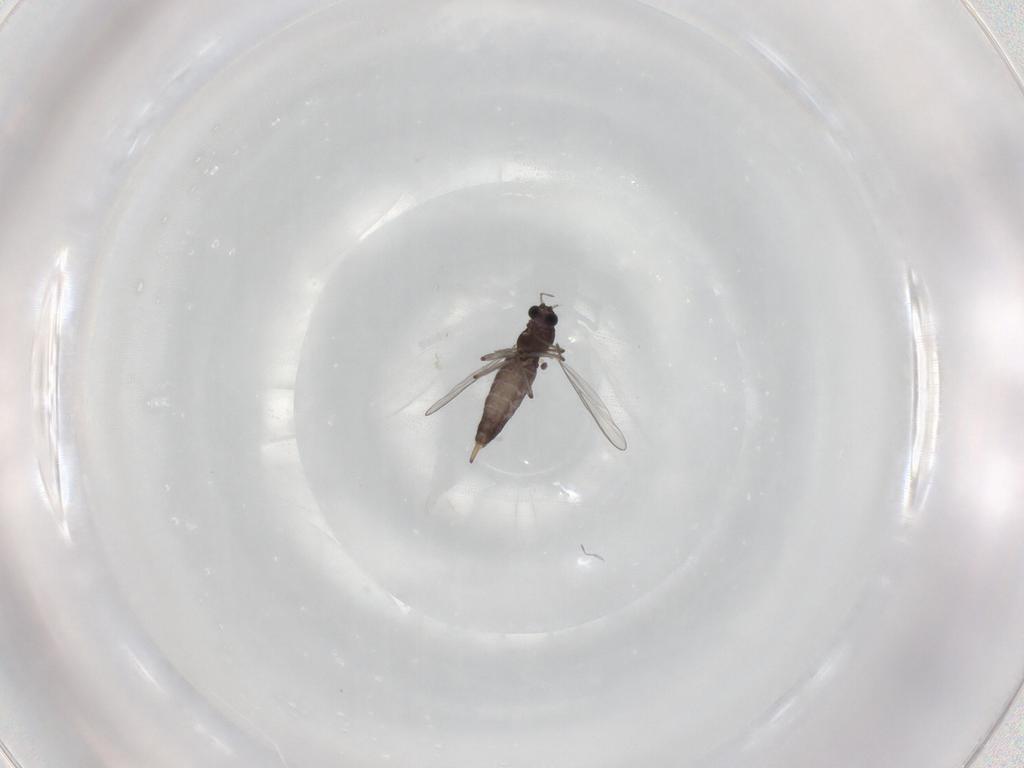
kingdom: Animalia
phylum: Arthropoda
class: Insecta
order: Diptera
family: Chironomidae
